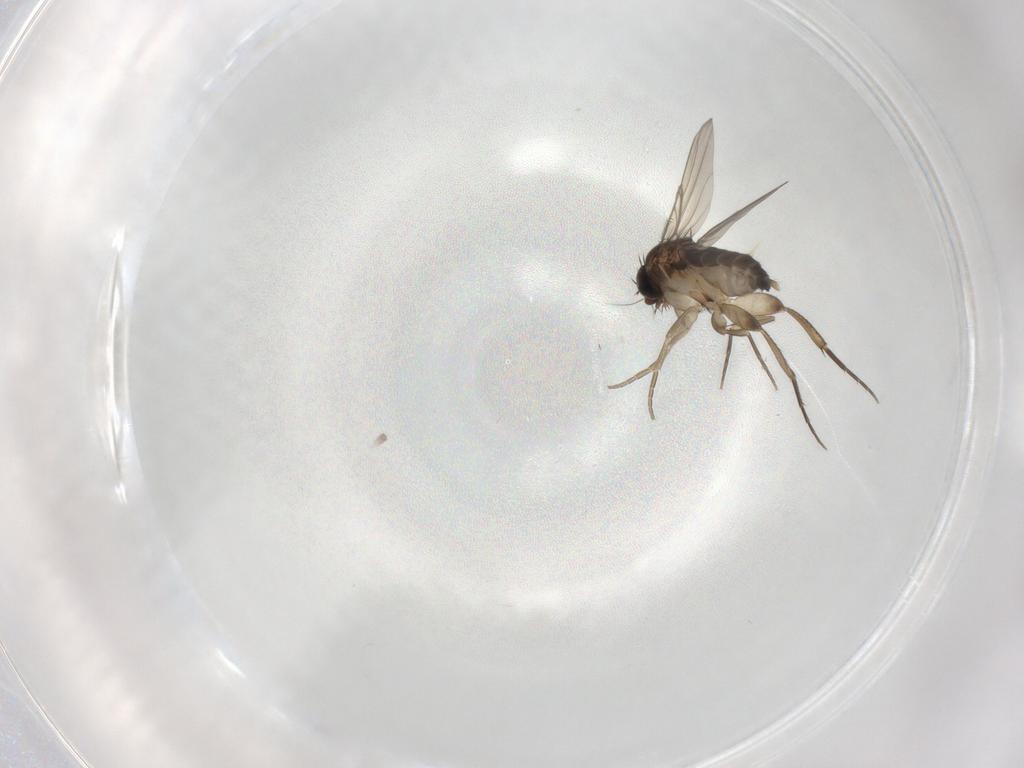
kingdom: Animalia
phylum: Arthropoda
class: Insecta
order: Diptera
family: Phoridae
